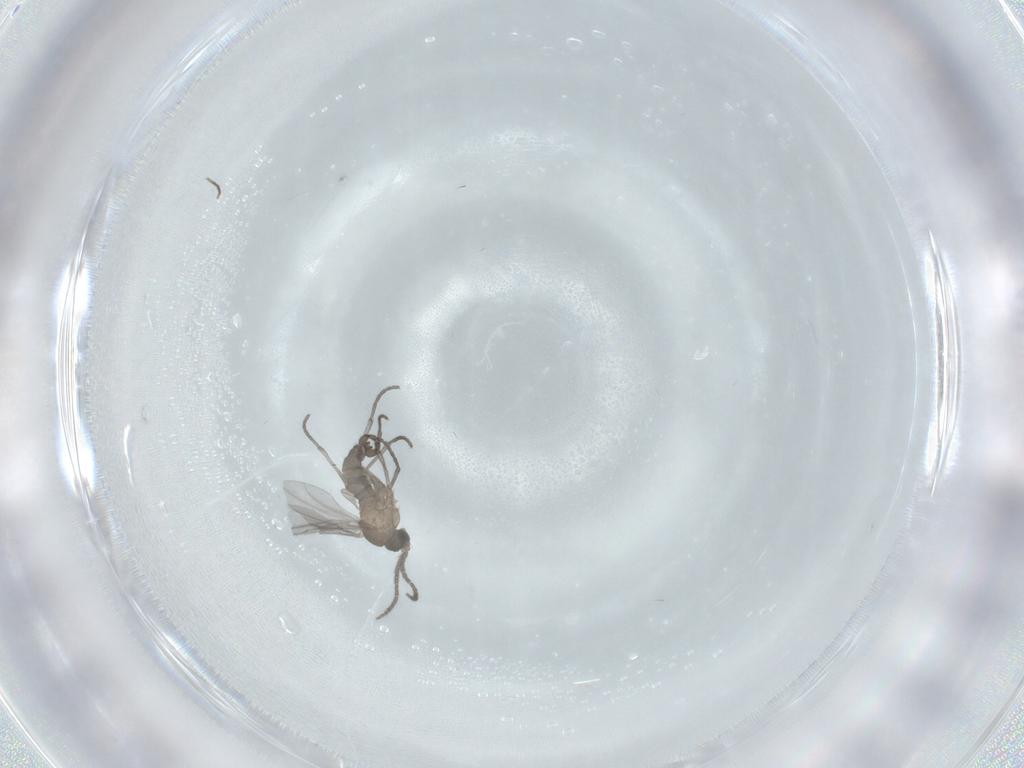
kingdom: Animalia
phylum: Arthropoda
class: Insecta
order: Diptera
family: Sciaridae
